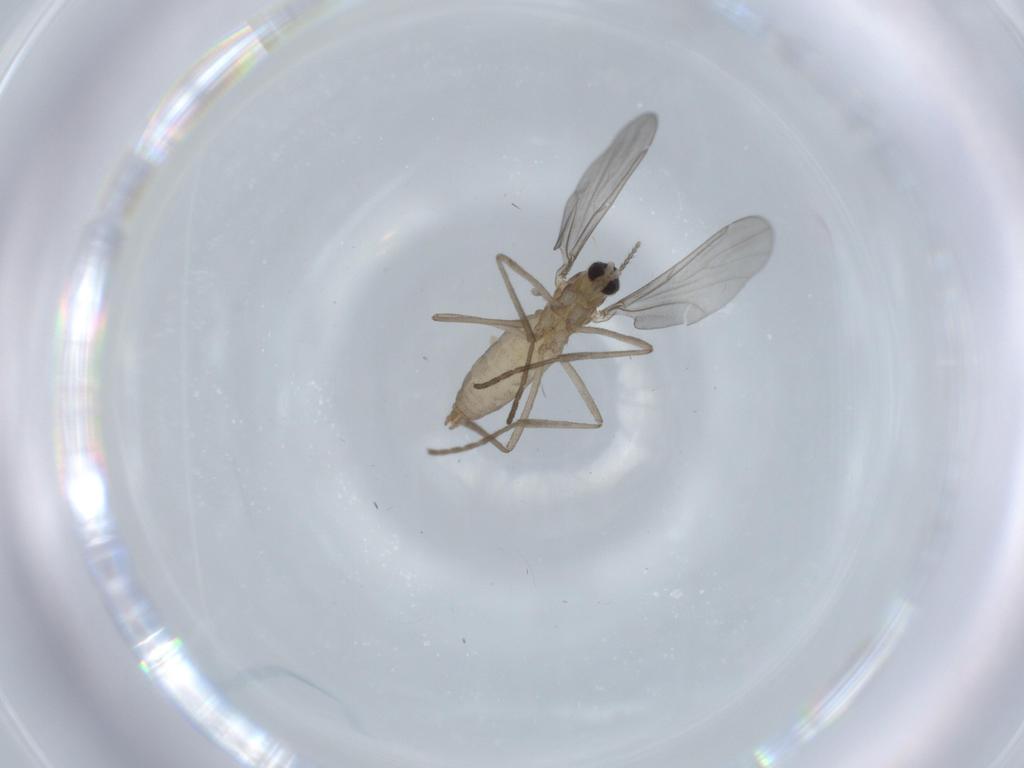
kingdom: Animalia
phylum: Arthropoda
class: Insecta
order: Diptera
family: Cecidomyiidae
